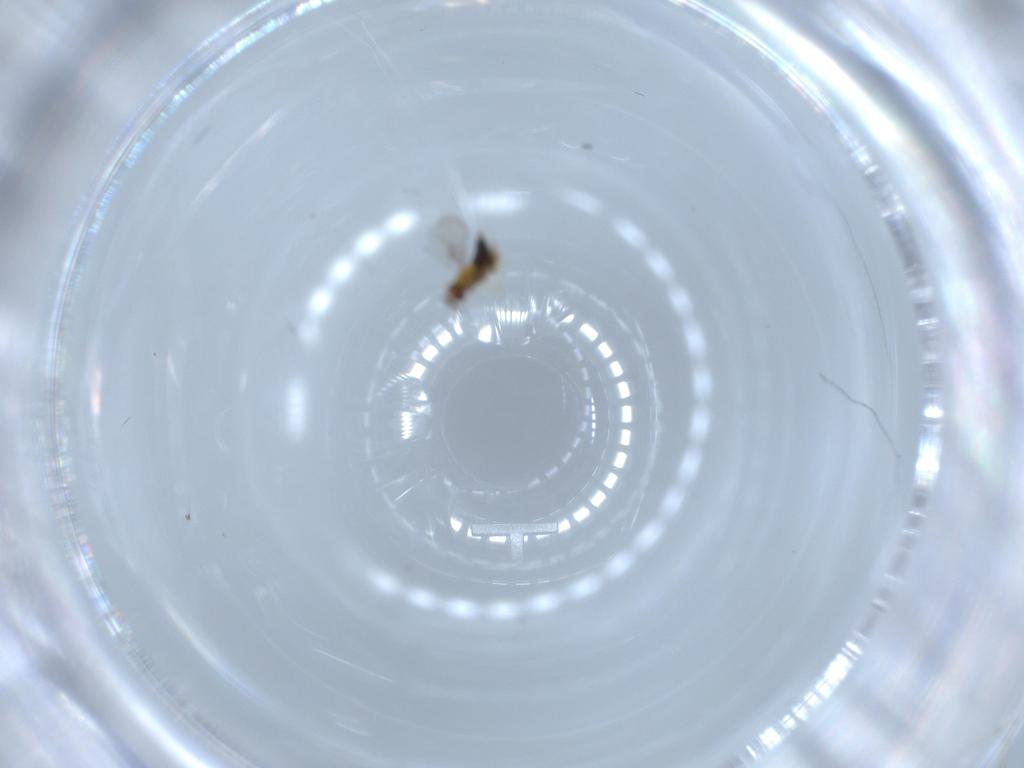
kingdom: Animalia
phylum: Arthropoda
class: Insecta
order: Hymenoptera
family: Trichogrammatidae
